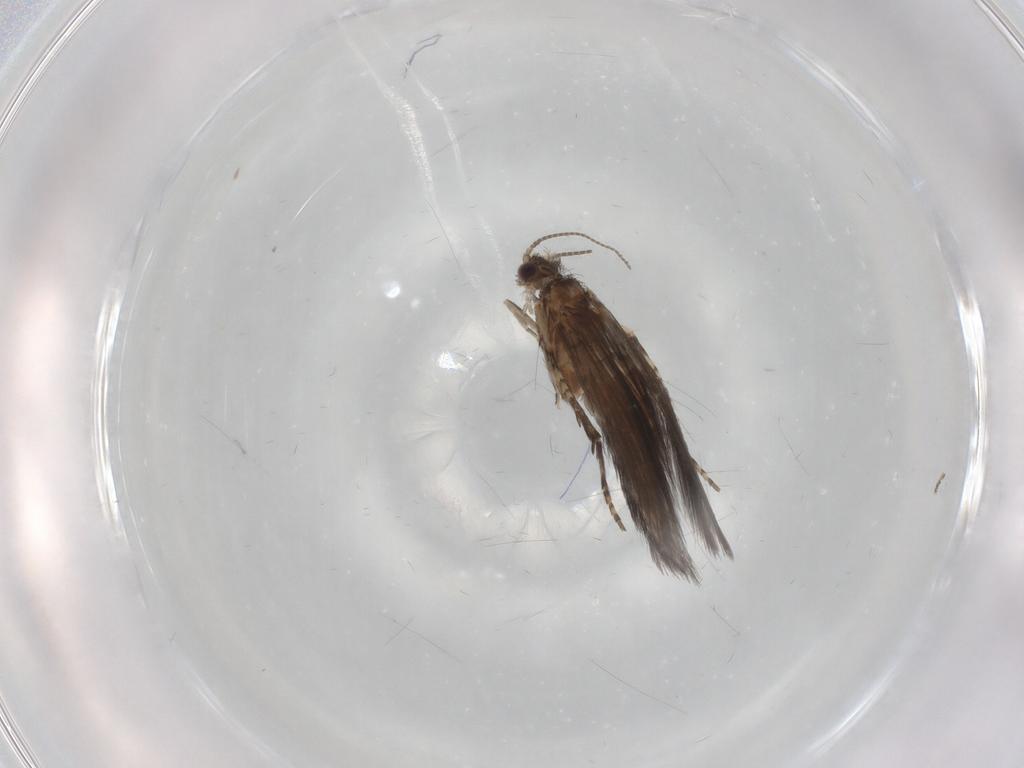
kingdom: Animalia
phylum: Arthropoda
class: Insecta
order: Trichoptera
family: Hydroptilidae
